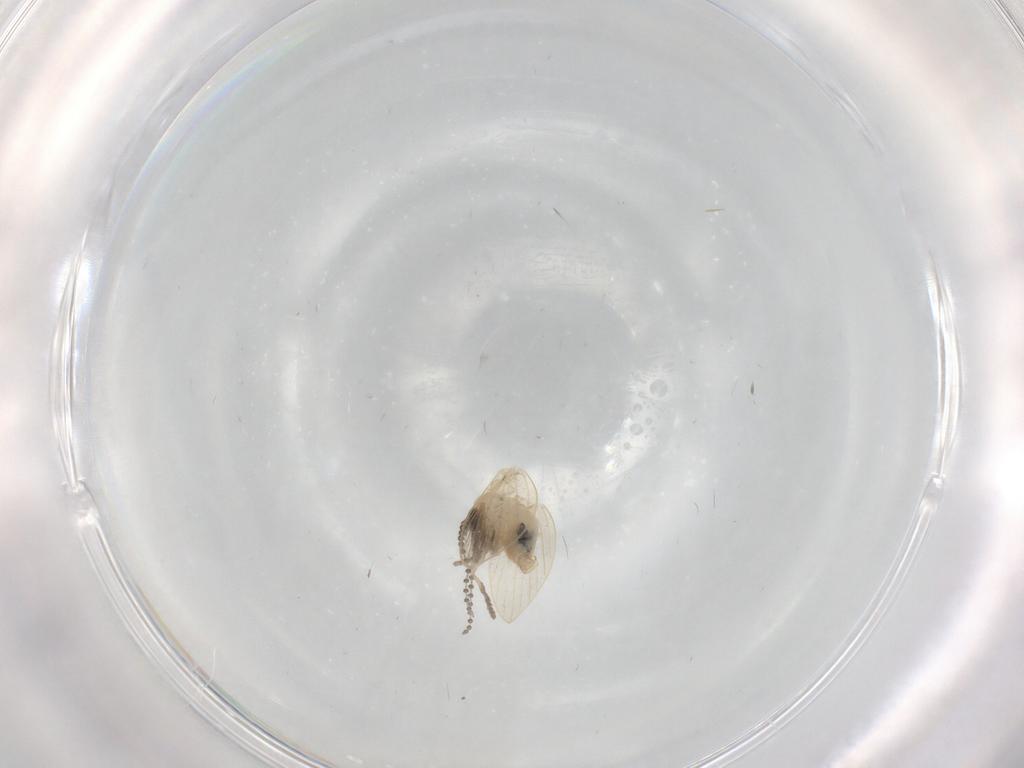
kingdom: Animalia
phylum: Arthropoda
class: Insecta
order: Diptera
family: Psychodidae
